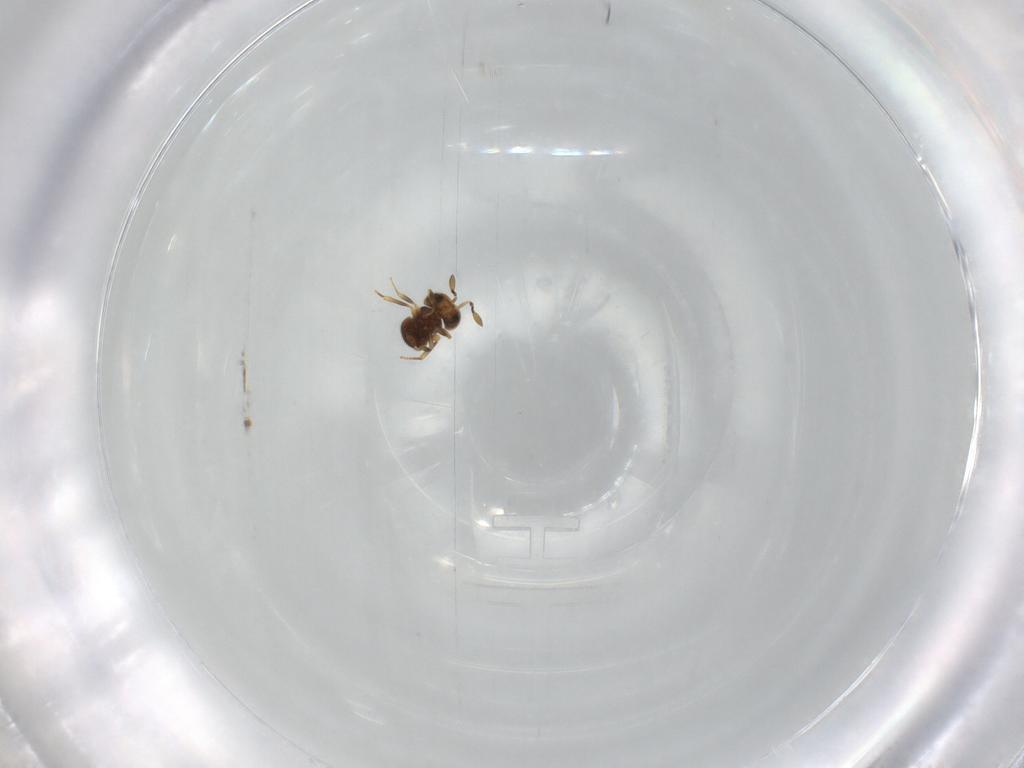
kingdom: Animalia
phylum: Arthropoda
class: Insecta
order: Hymenoptera
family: Scelionidae
